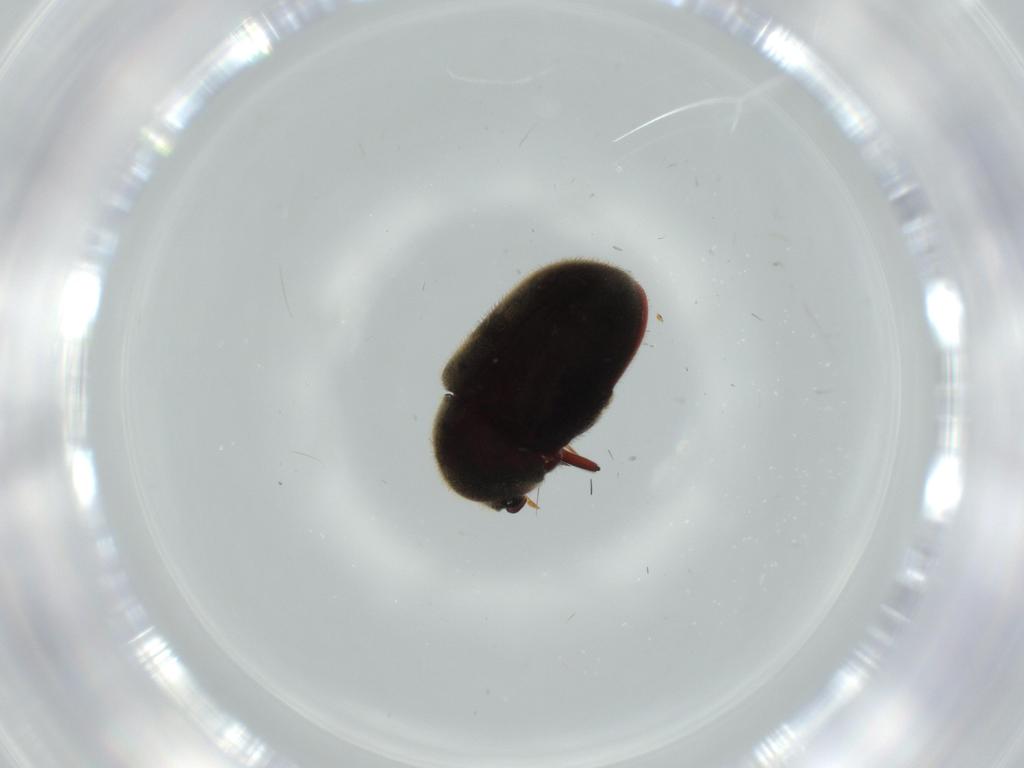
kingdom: Animalia
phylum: Arthropoda
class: Insecta
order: Coleoptera
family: Ptinidae
